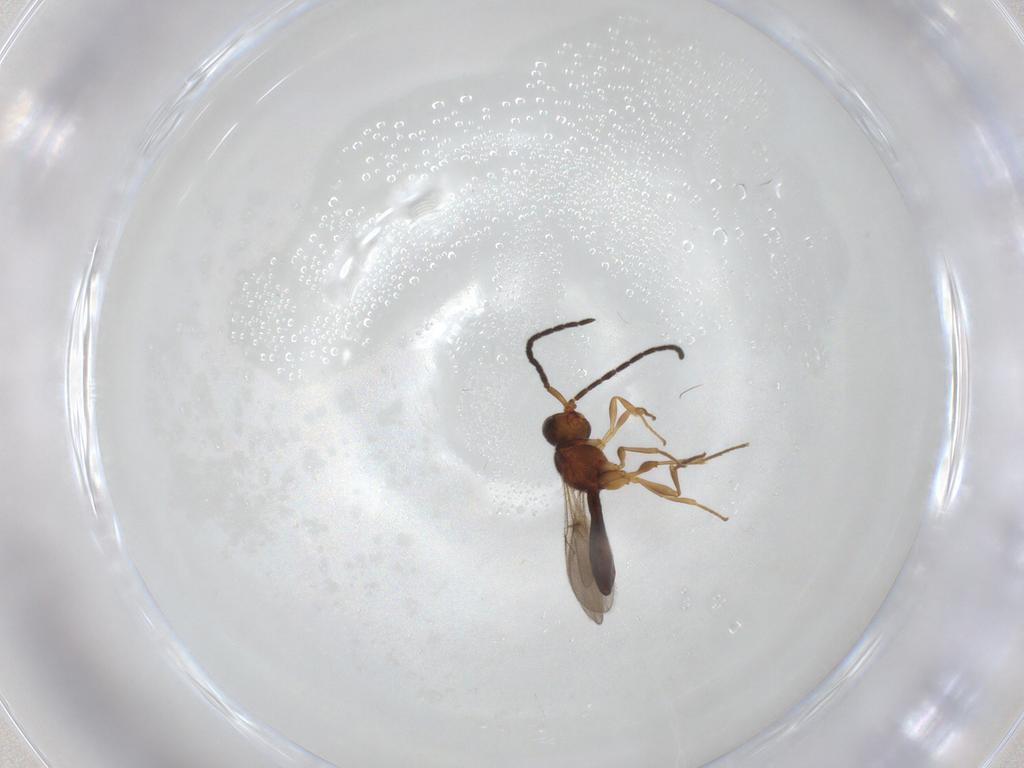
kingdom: Animalia
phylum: Arthropoda
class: Insecta
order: Hymenoptera
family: Scelionidae
